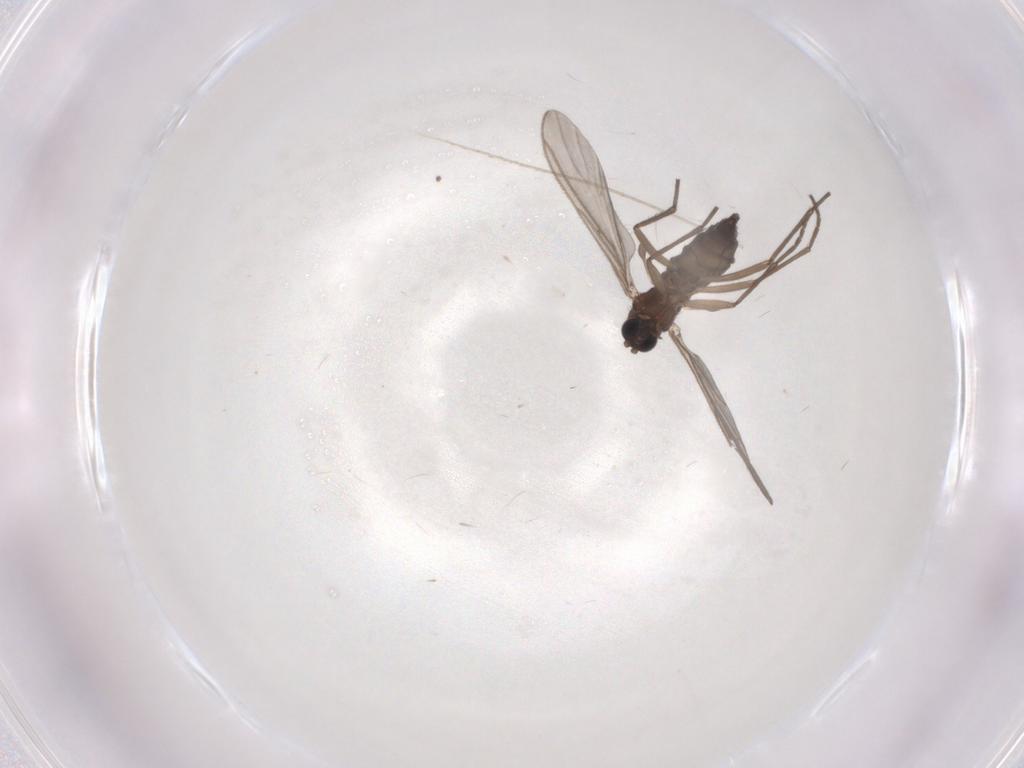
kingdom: Animalia
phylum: Arthropoda
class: Insecta
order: Diptera
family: Sciaridae
